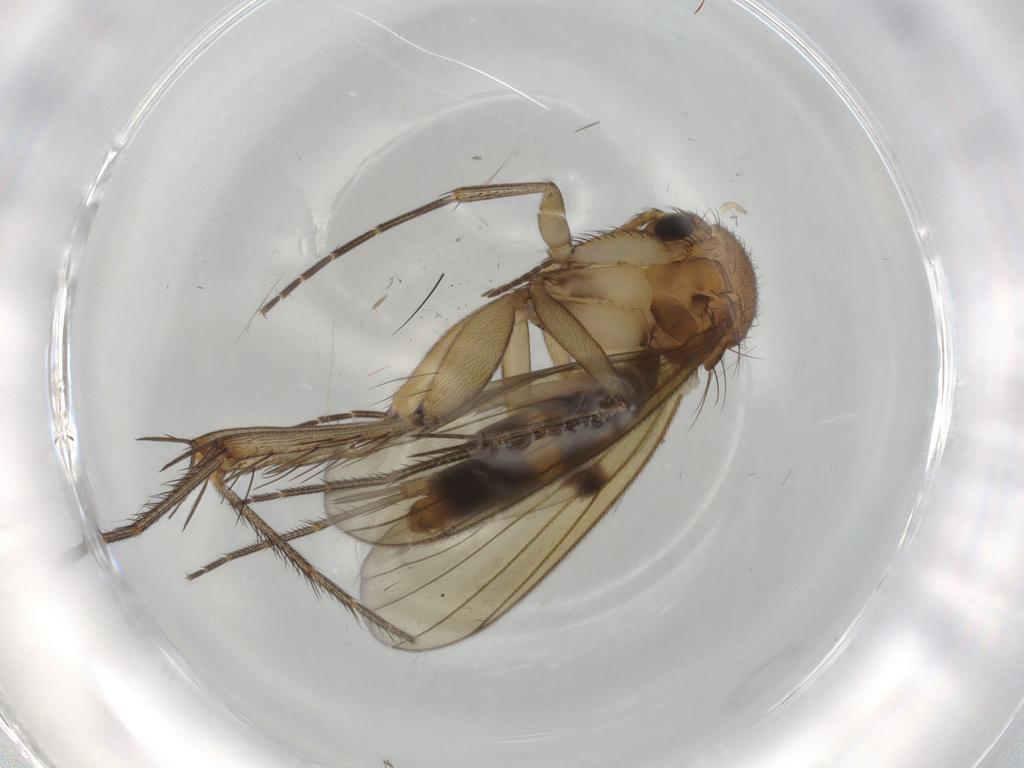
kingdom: Animalia
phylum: Arthropoda
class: Insecta
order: Diptera
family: Mycetophilidae
